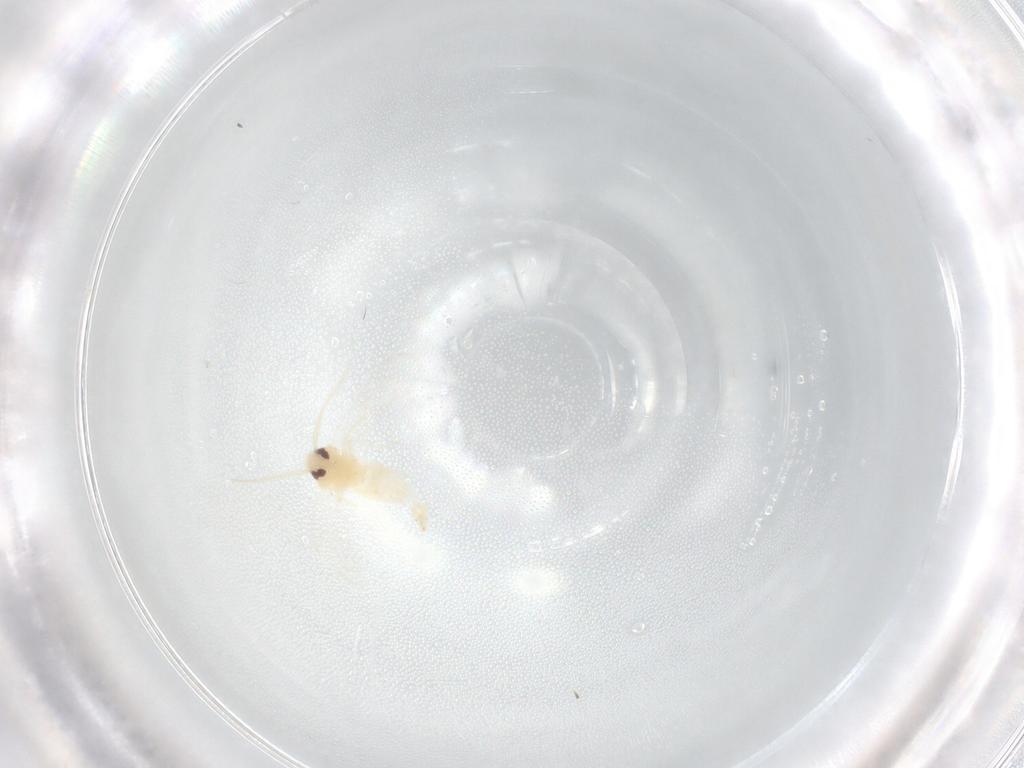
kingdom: Animalia
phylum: Arthropoda
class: Insecta
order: Hemiptera
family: Aleyrodidae
